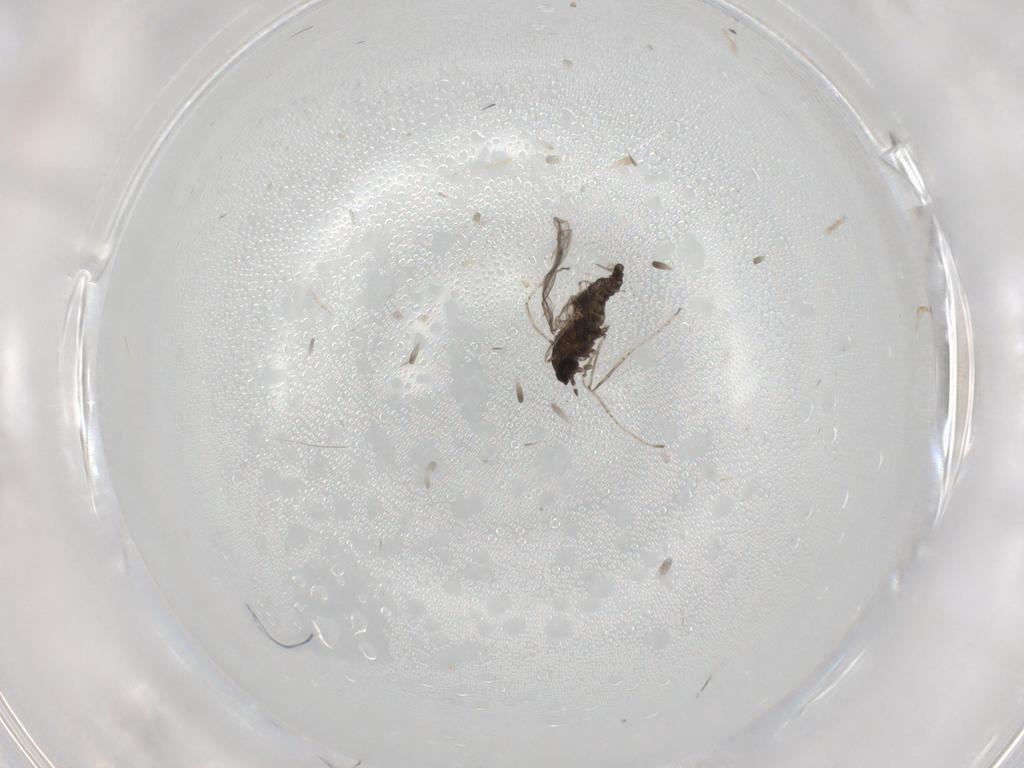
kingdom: Animalia
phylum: Arthropoda
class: Insecta
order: Diptera
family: Cecidomyiidae
